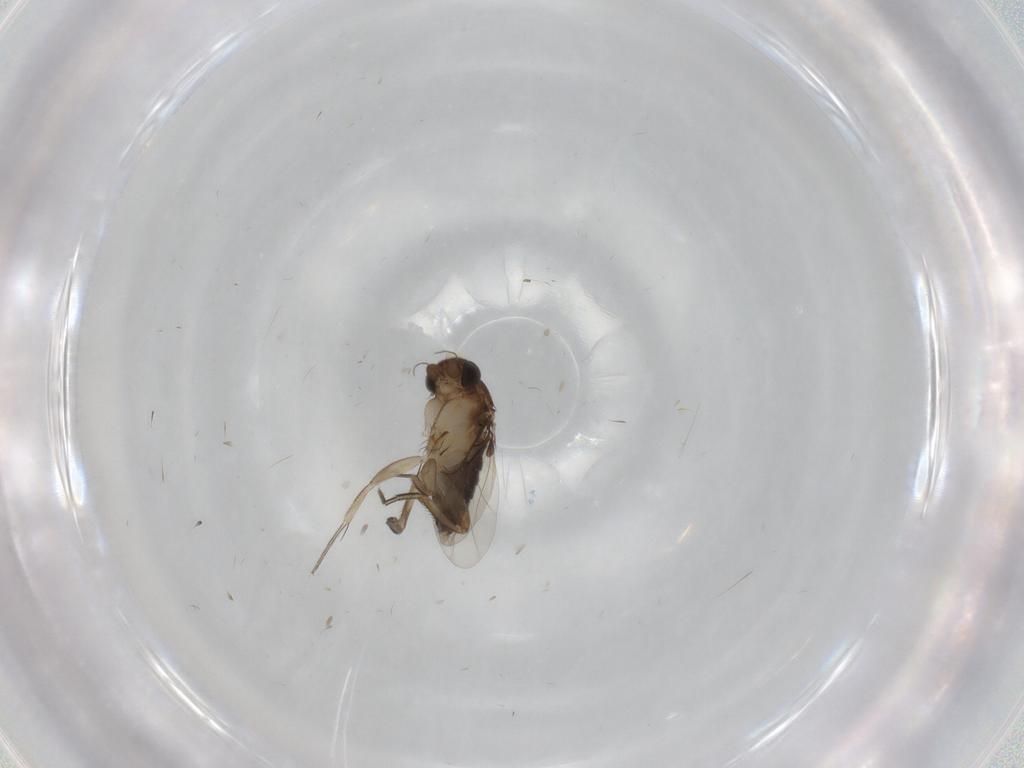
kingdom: Animalia
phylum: Arthropoda
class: Insecta
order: Diptera
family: Phoridae
